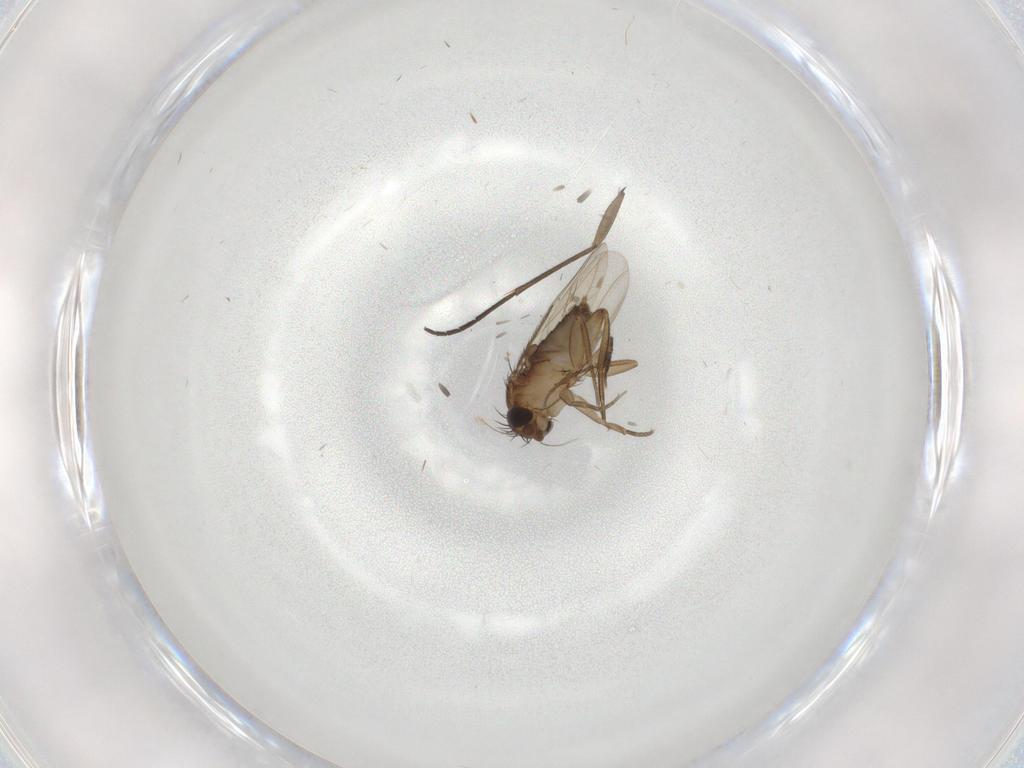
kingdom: Animalia
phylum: Arthropoda
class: Insecta
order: Diptera
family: Phoridae
